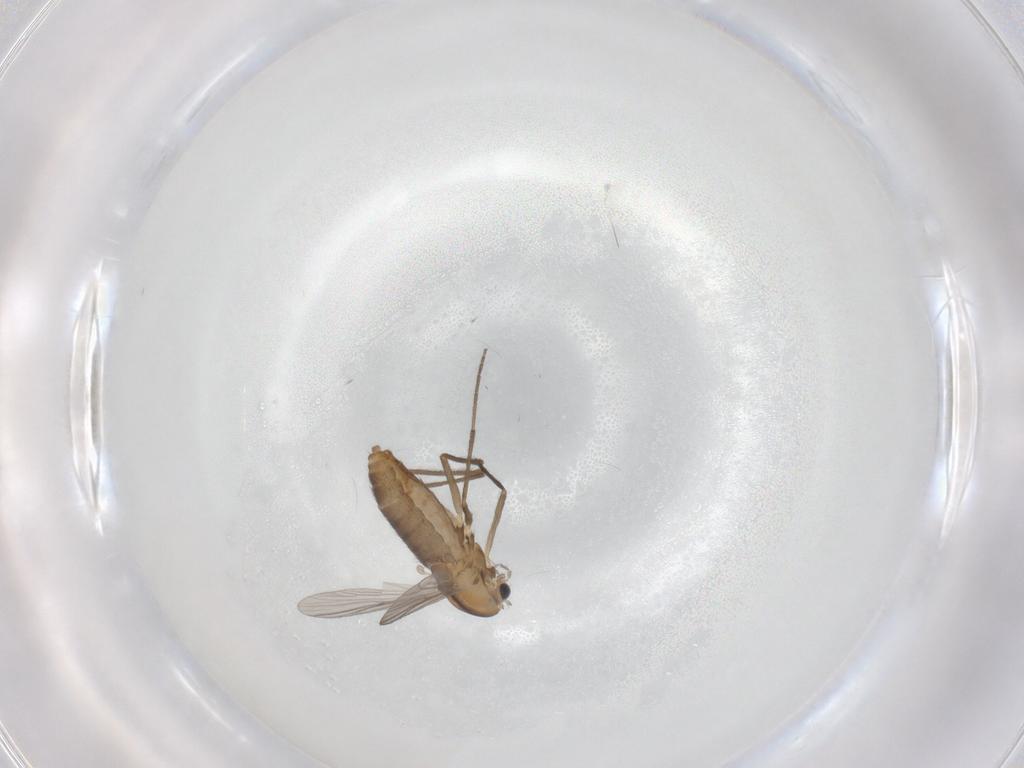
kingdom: Animalia
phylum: Arthropoda
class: Insecta
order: Diptera
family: Chironomidae
